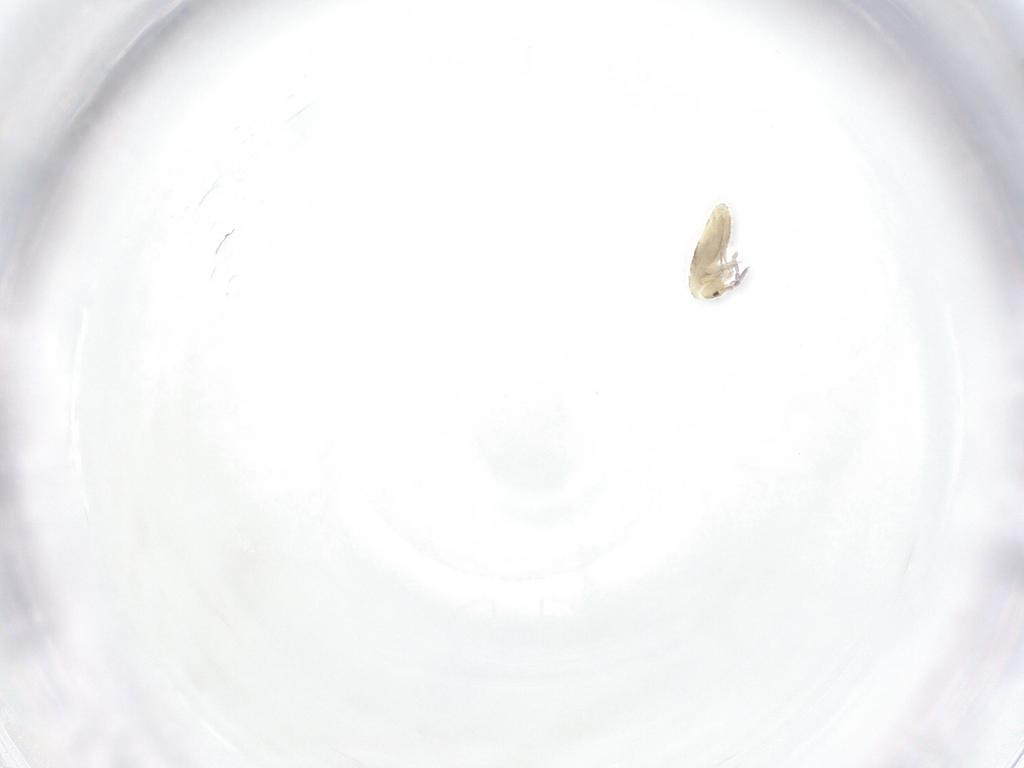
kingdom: Animalia
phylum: Arthropoda
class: Collembola
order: Entomobryomorpha
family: Entomobryidae
